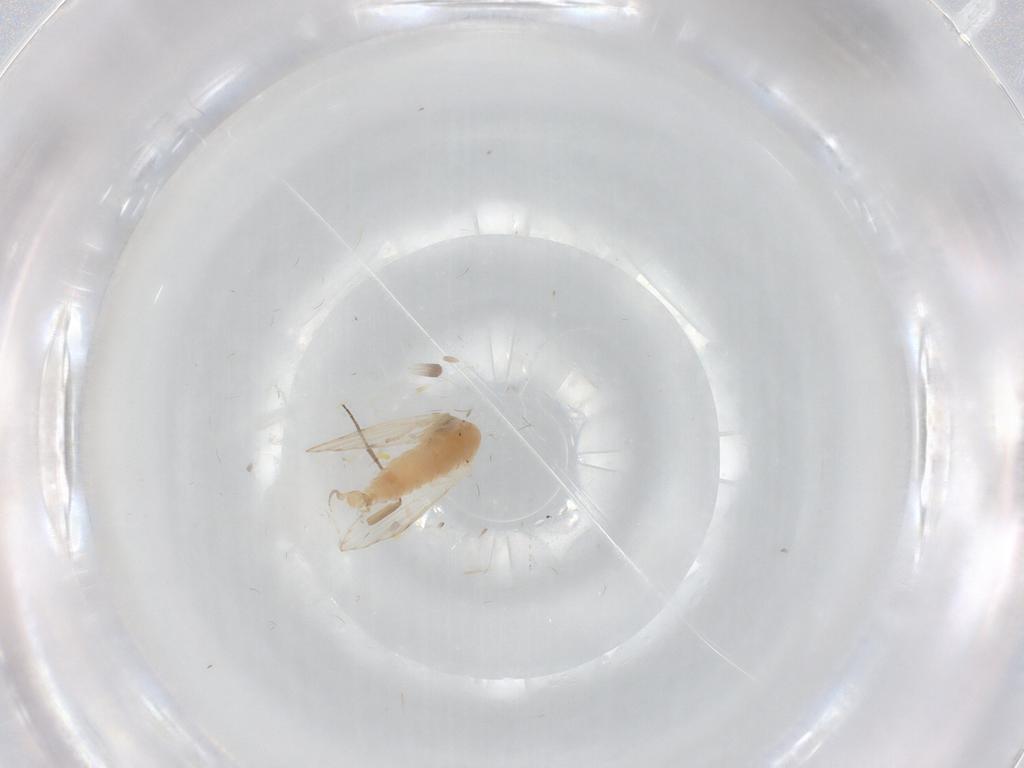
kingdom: Animalia
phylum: Arthropoda
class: Insecta
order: Diptera
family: Psychodidae
